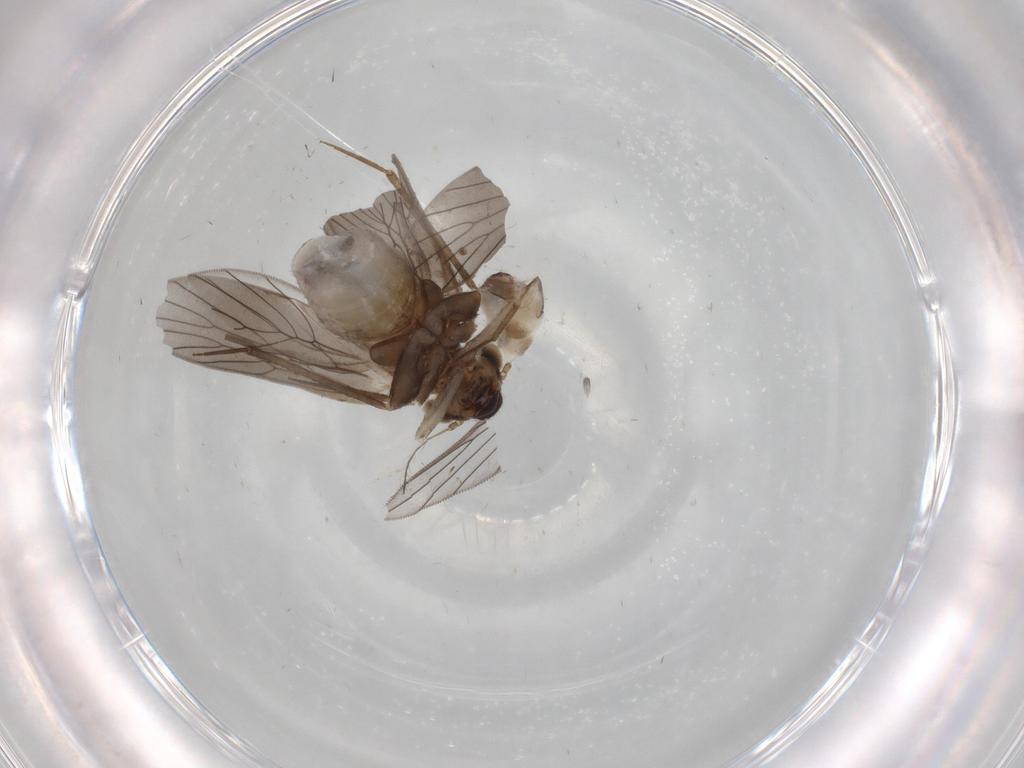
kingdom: Animalia
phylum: Arthropoda
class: Insecta
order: Psocodea
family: Lepidopsocidae
